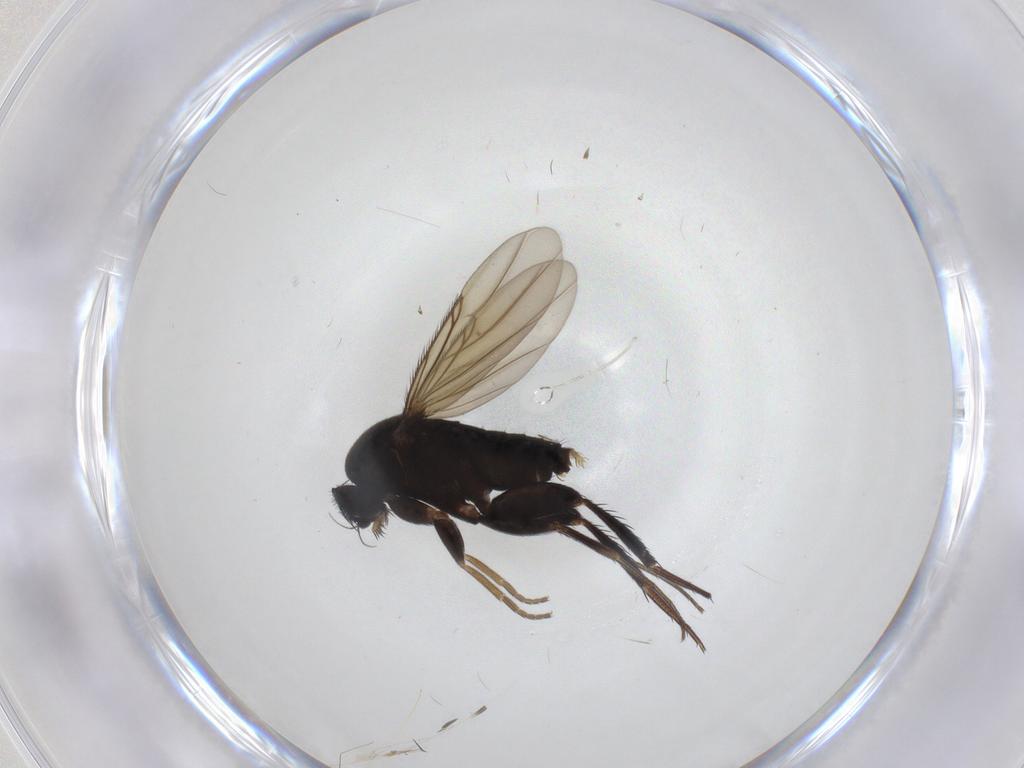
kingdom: Animalia
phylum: Arthropoda
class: Insecta
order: Diptera
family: Phoridae
